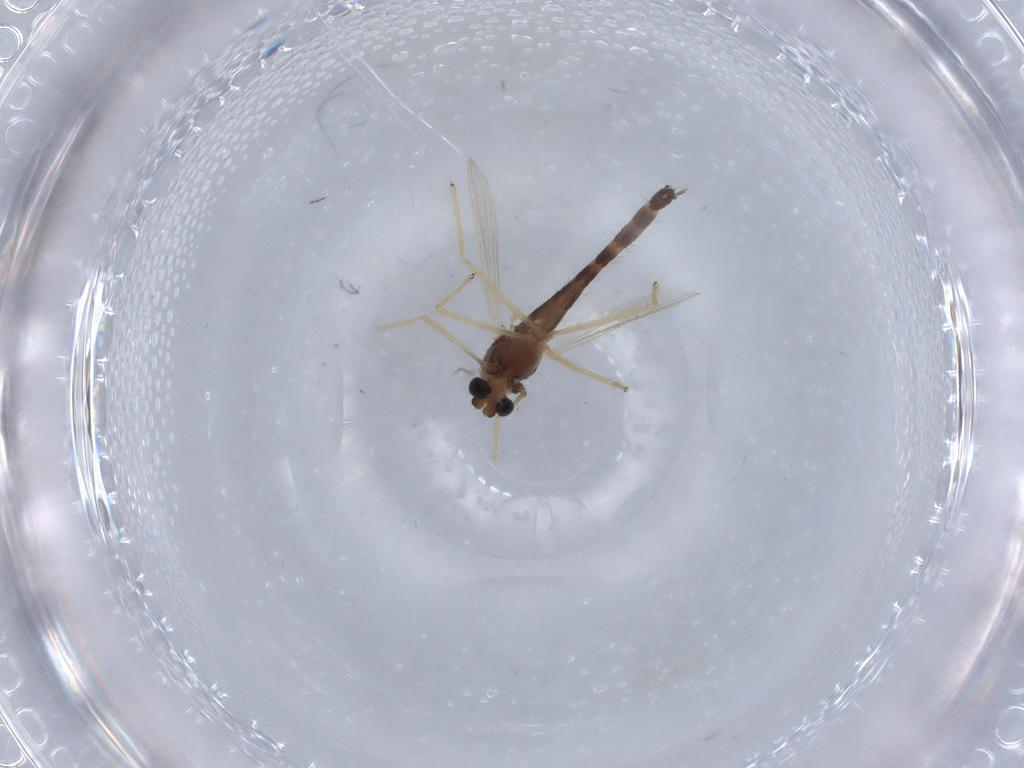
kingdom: Animalia
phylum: Arthropoda
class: Insecta
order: Diptera
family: Chironomidae
